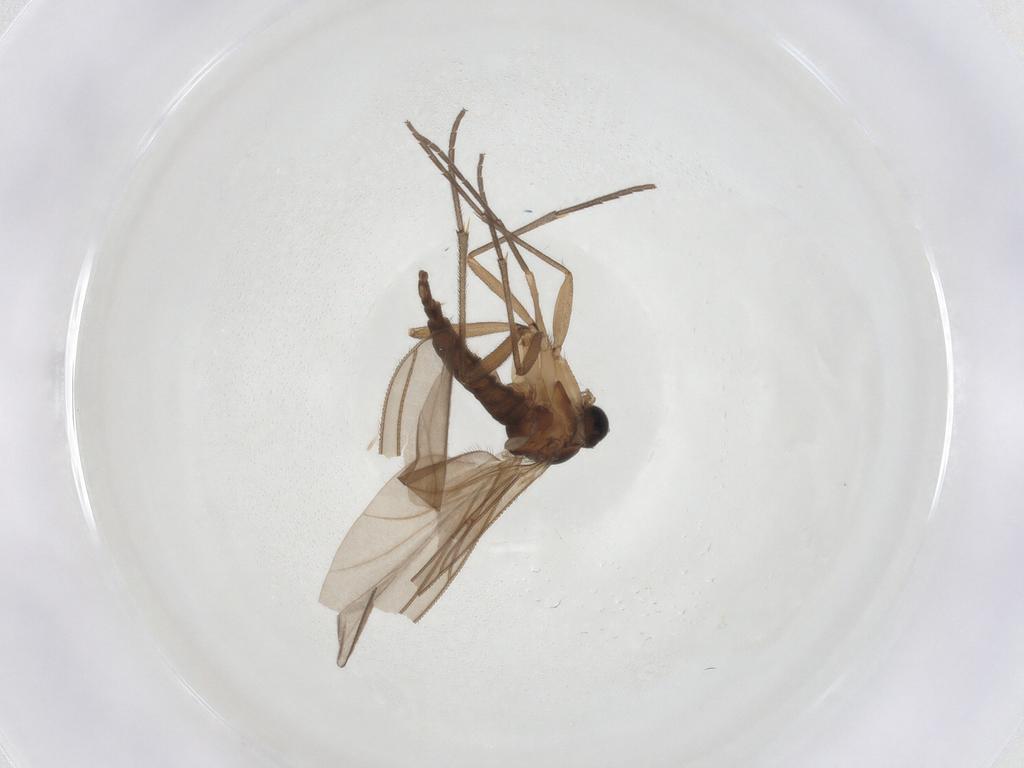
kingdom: Animalia
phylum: Arthropoda
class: Insecta
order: Diptera
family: Sciaridae
